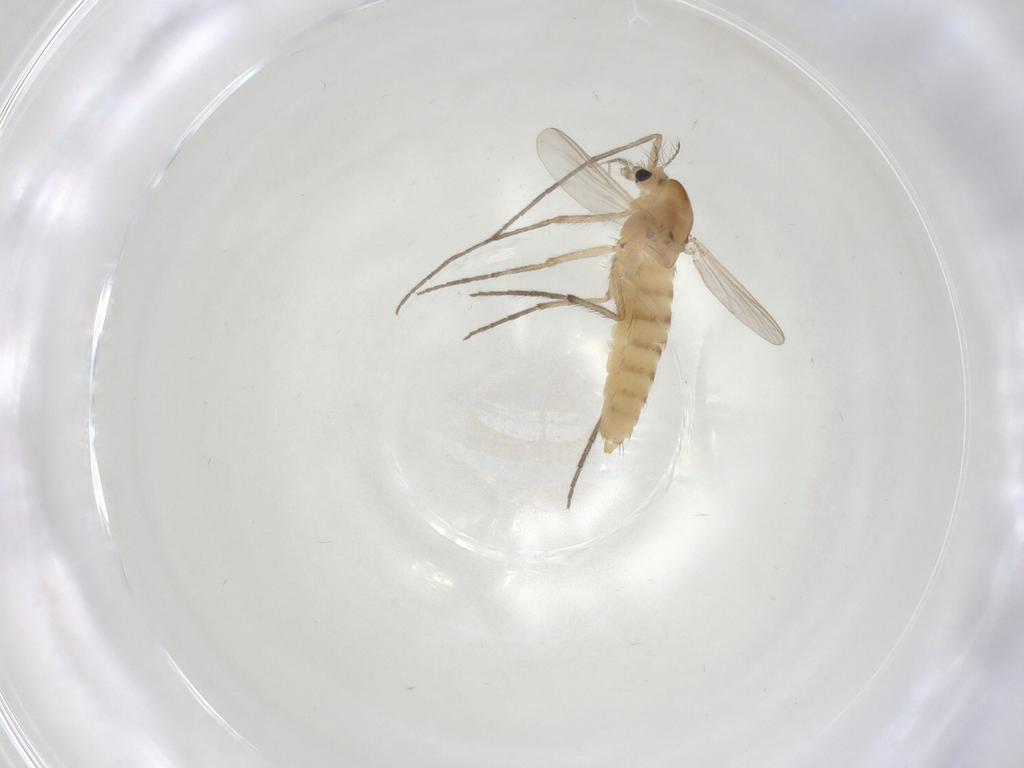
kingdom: Animalia
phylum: Arthropoda
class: Insecta
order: Diptera
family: Chironomidae
